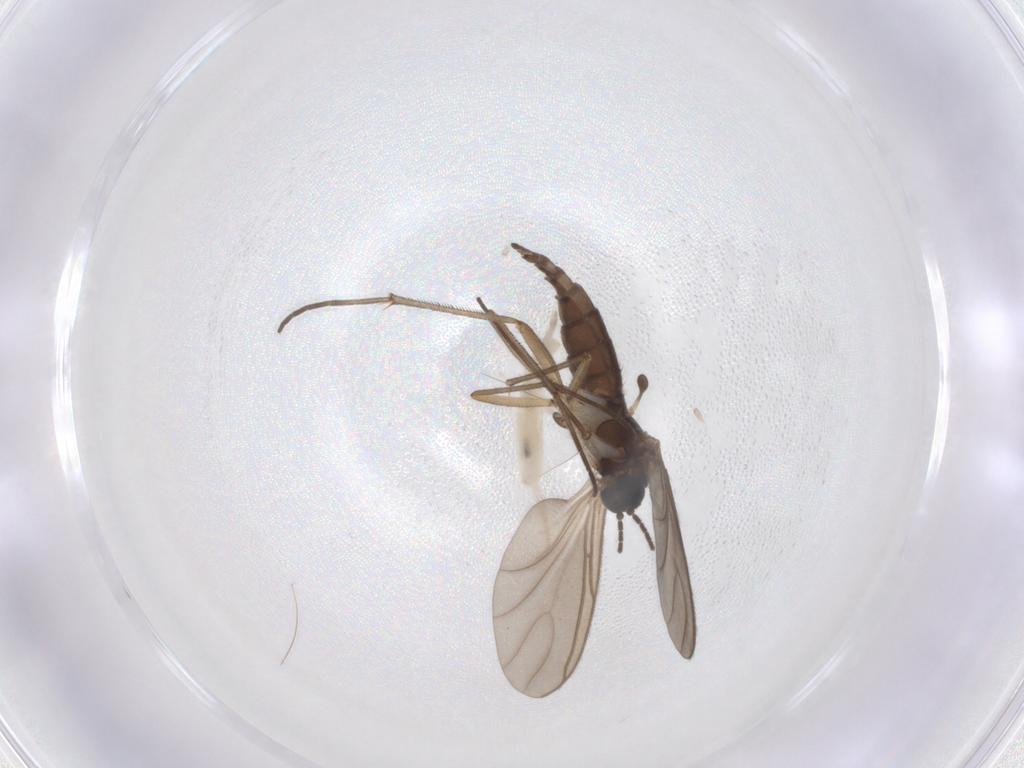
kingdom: Animalia
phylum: Arthropoda
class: Insecta
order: Diptera
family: Sciaridae
